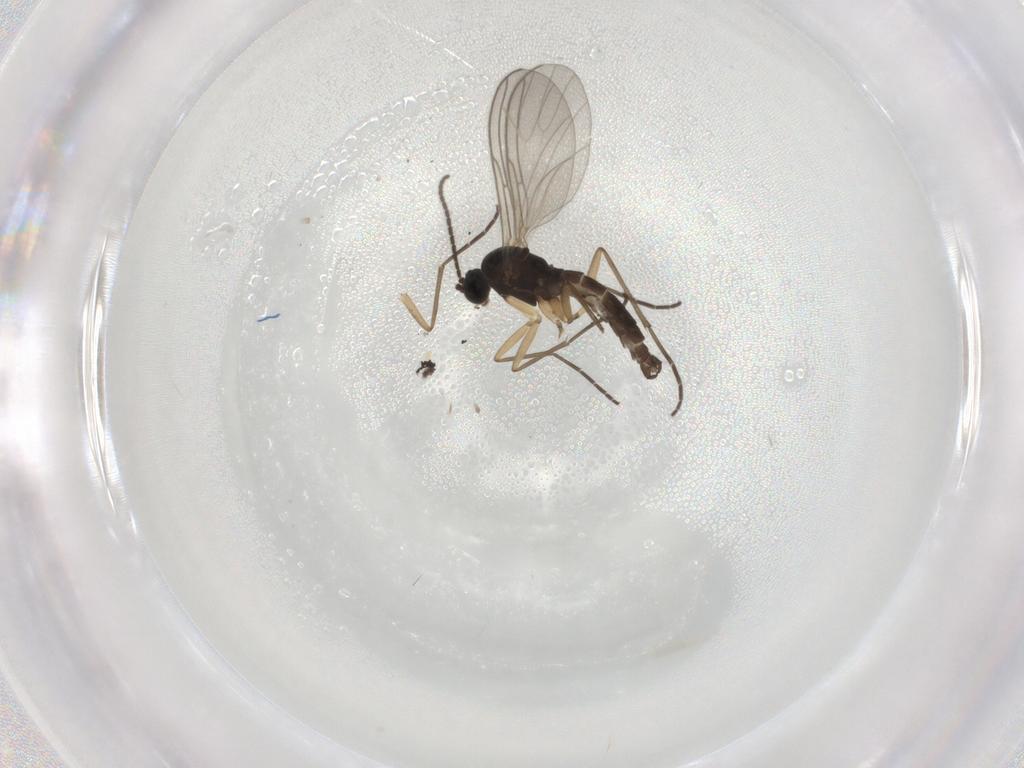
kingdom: Animalia
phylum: Arthropoda
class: Insecta
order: Diptera
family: Sciaridae
